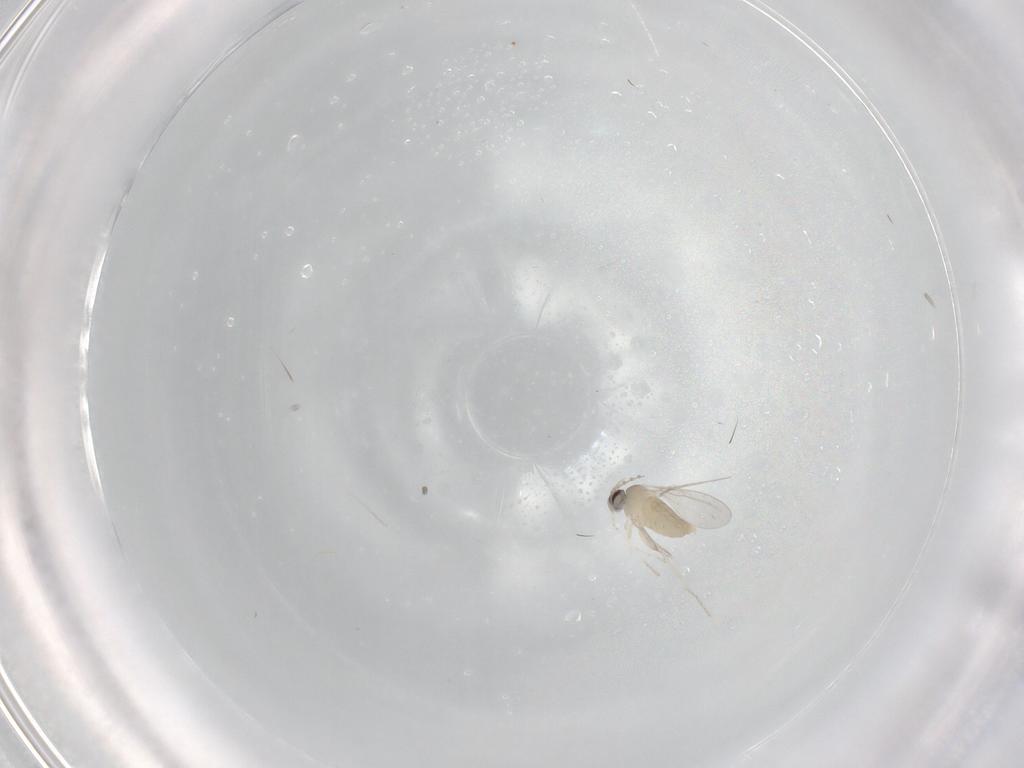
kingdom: Animalia
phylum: Arthropoda
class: Insecta
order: Diptera
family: Cecidomyiidae
